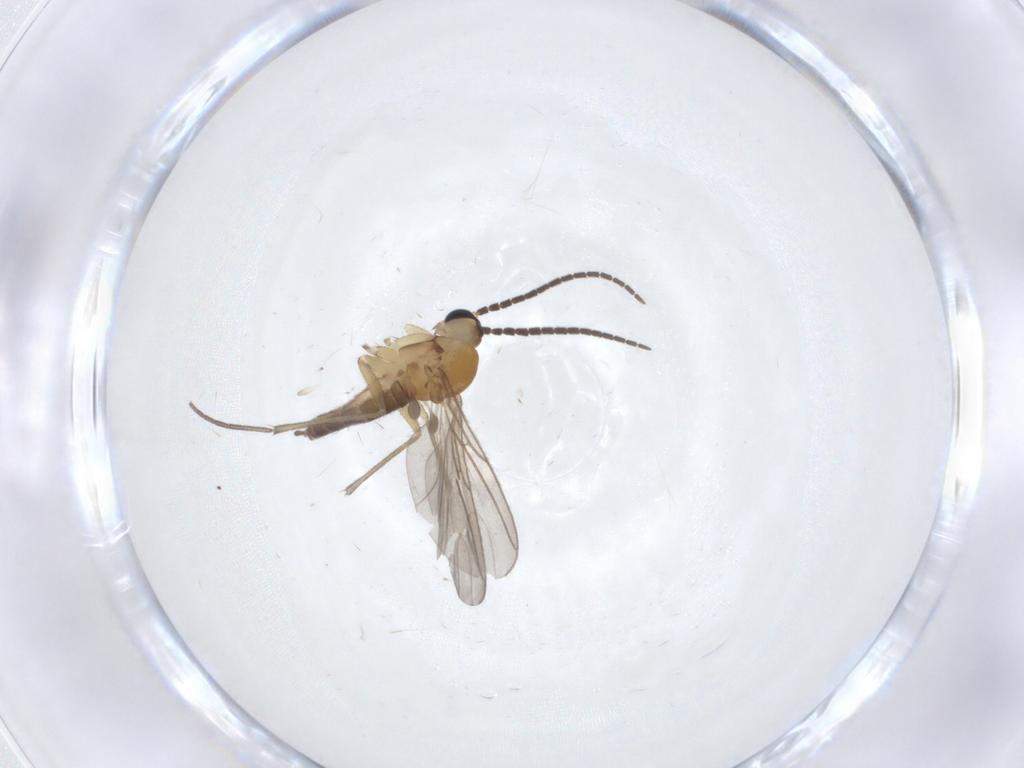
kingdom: Animalia
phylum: Arthropoda
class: Insecta
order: Diptera
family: Sciaridae
